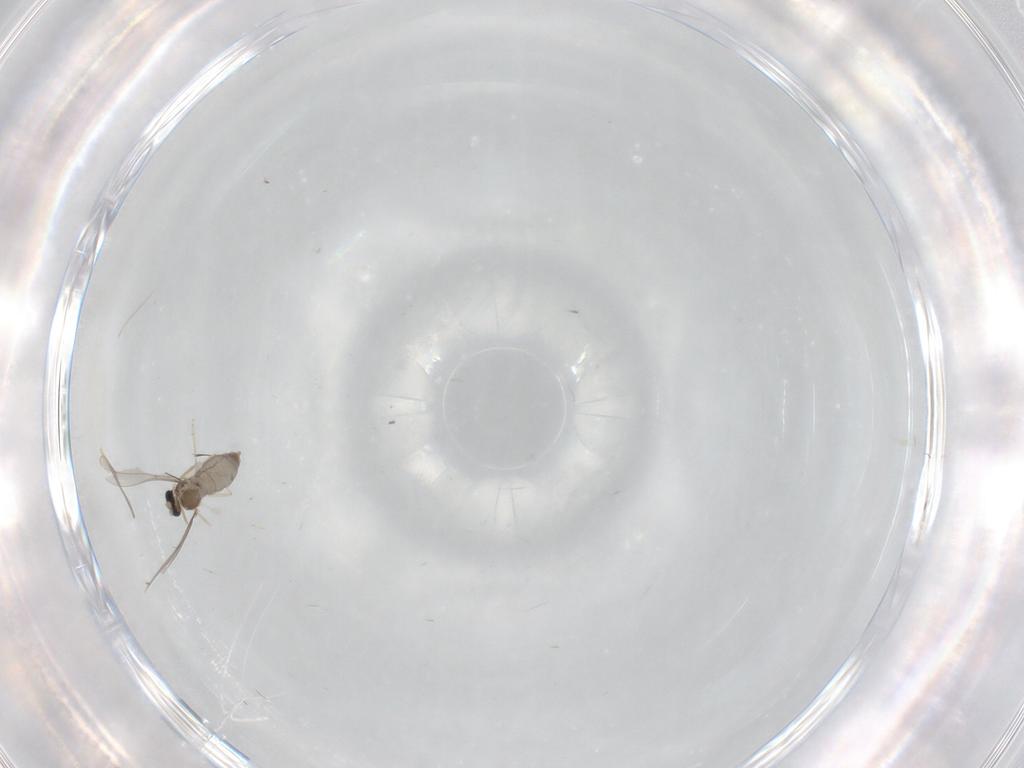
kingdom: Animalia
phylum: Arthropoda
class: Insecta
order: Diptera
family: Psychodidae
